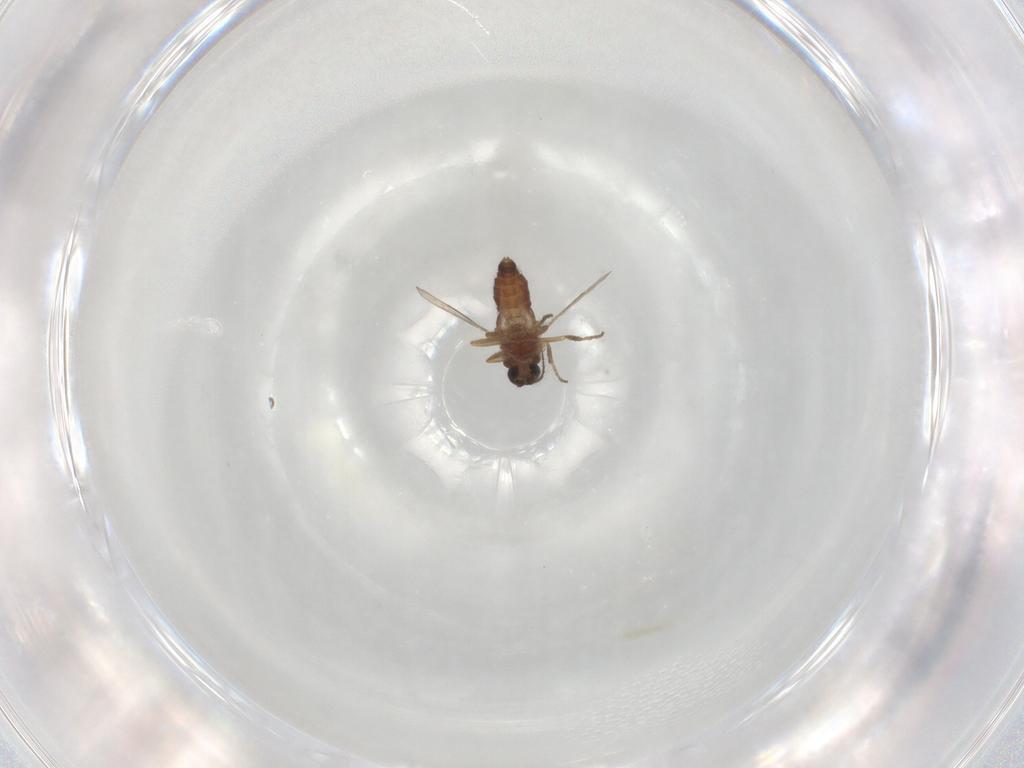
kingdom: Animalia
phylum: Arthropoda
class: Insecta
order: Diptera
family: Ceratopogonidae
